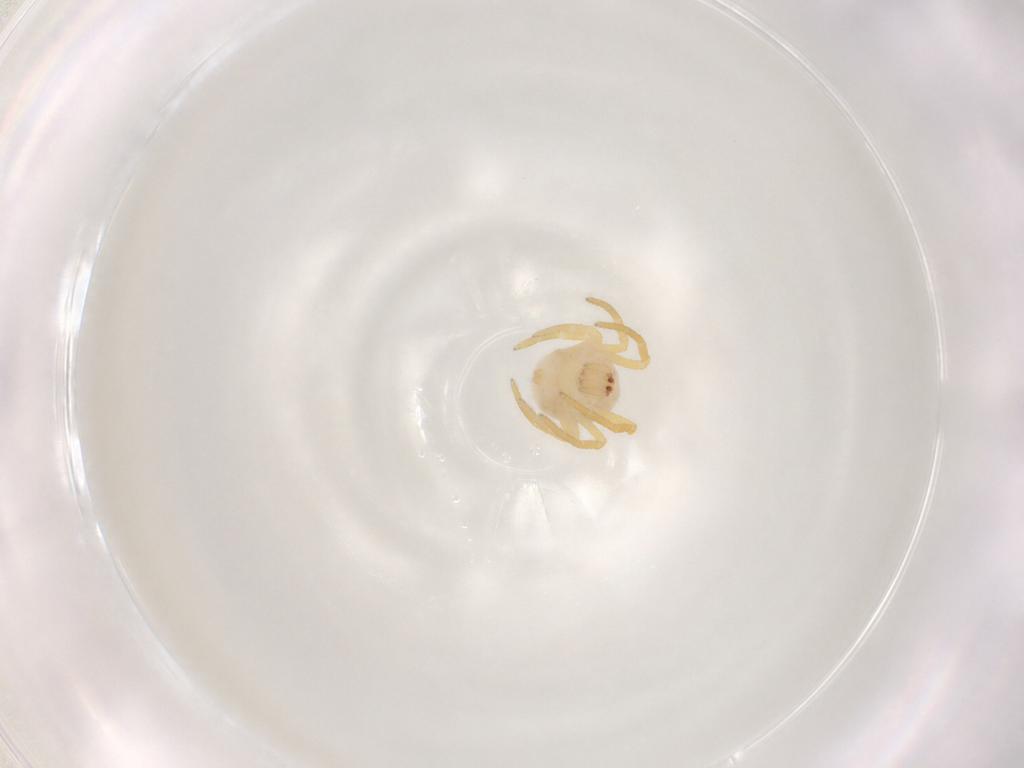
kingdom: Animalia
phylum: Arthropoda
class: Arachnida
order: Araneae
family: Theridiidae
